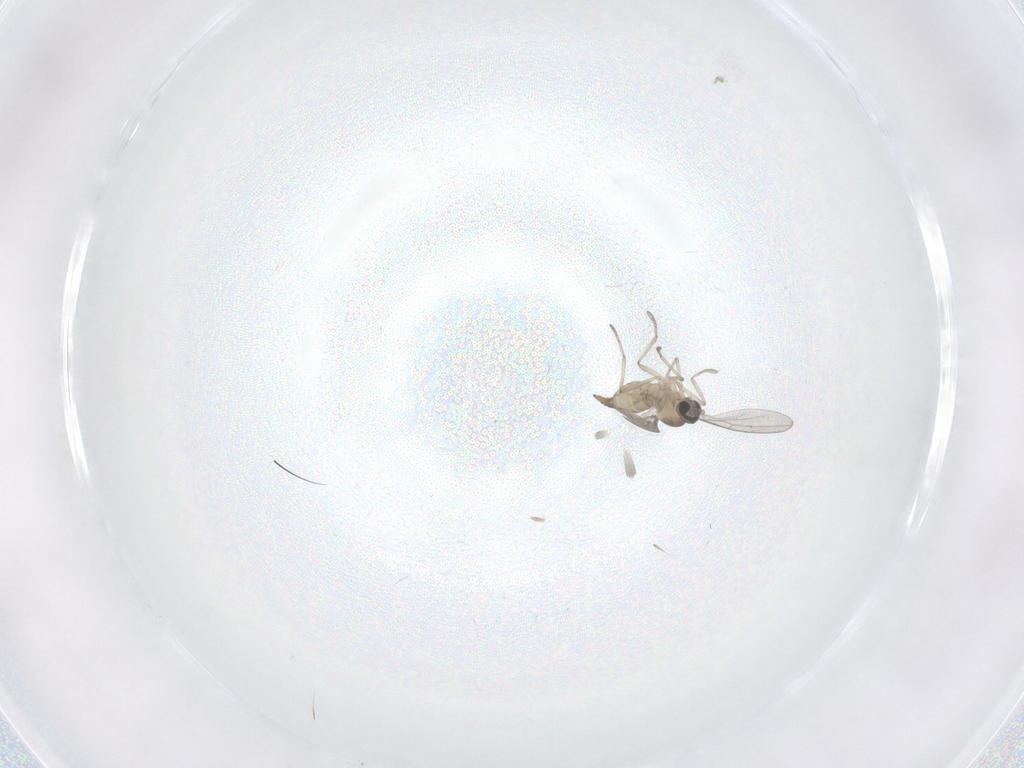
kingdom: Animalia
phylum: Arthropoda
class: Insecta
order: Diptera
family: Cecidomyiidae
